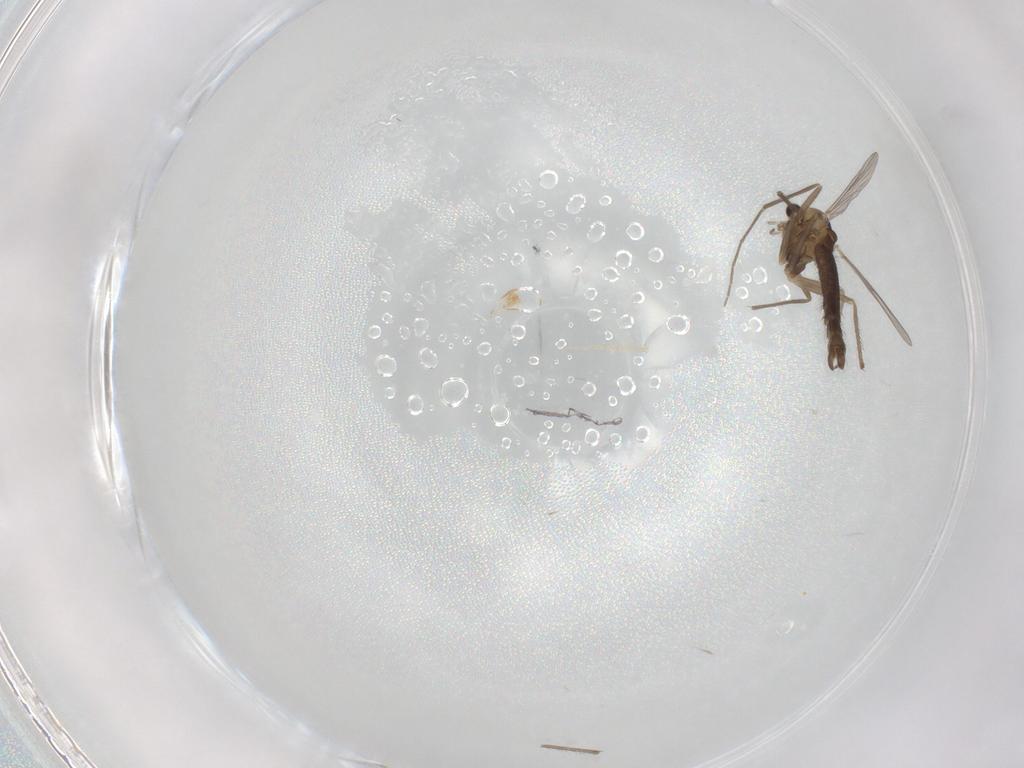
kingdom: Animalia
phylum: Arthropoda
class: Insecta
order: Diptera
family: Chironomidae
